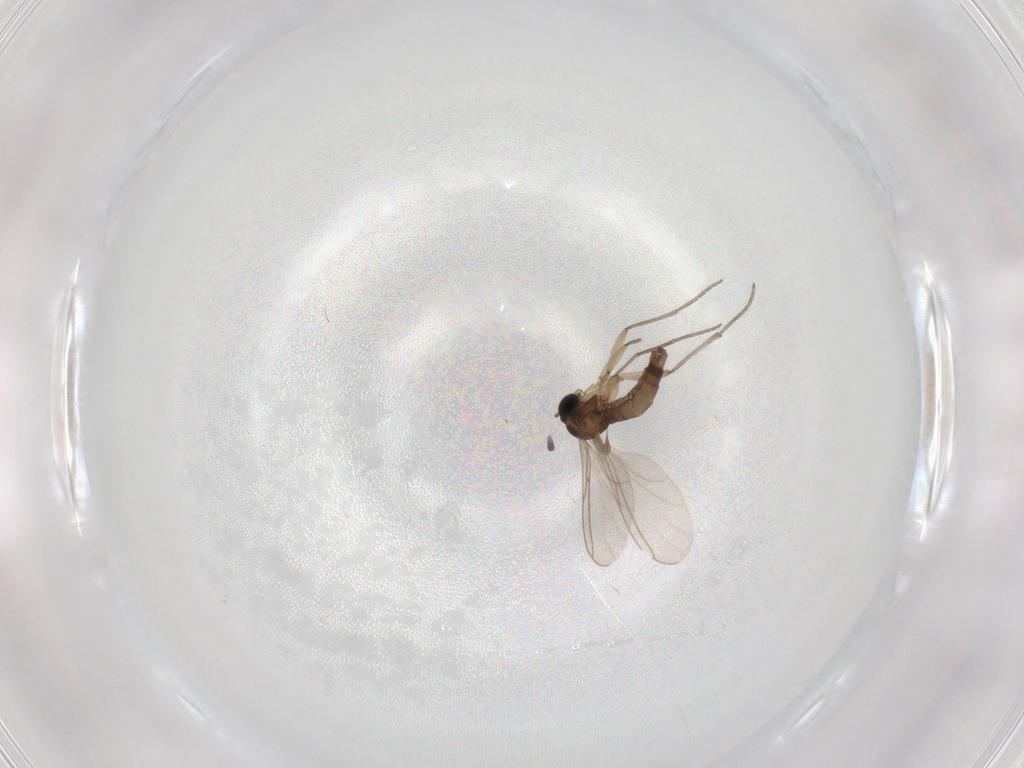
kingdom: Animalia
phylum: Arthropoda
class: Insecta
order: Diptera
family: Sciaridae
